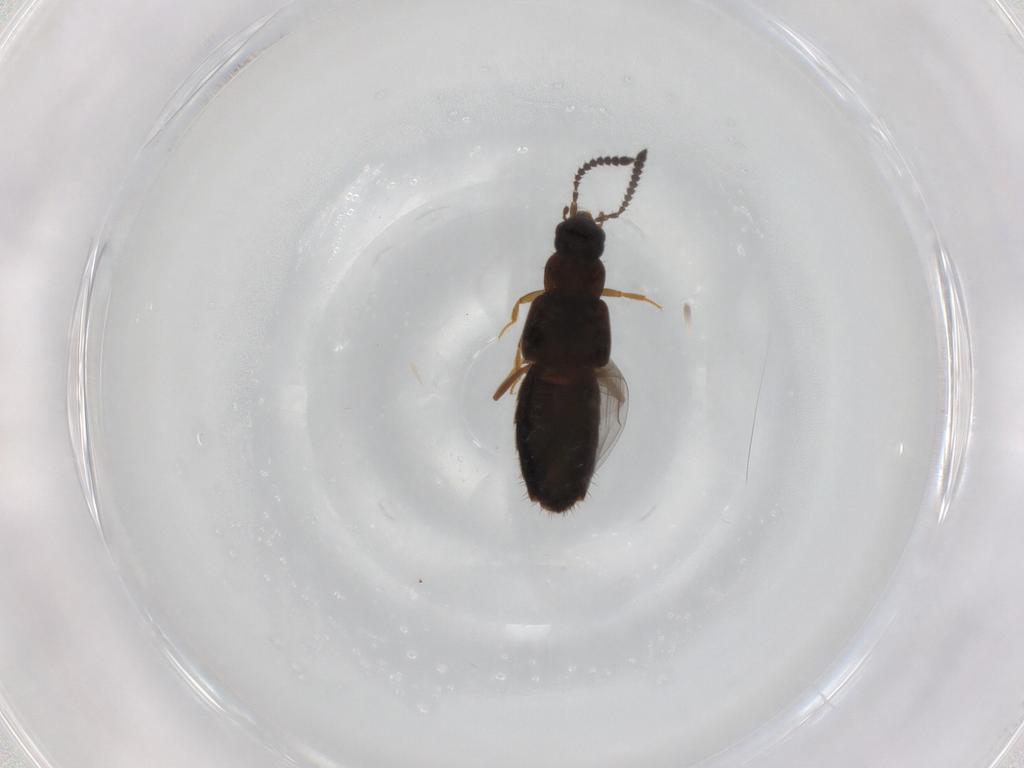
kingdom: Animalia
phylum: Arthropoda
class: Insecta
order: Coleoptera
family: Staphylinidae
